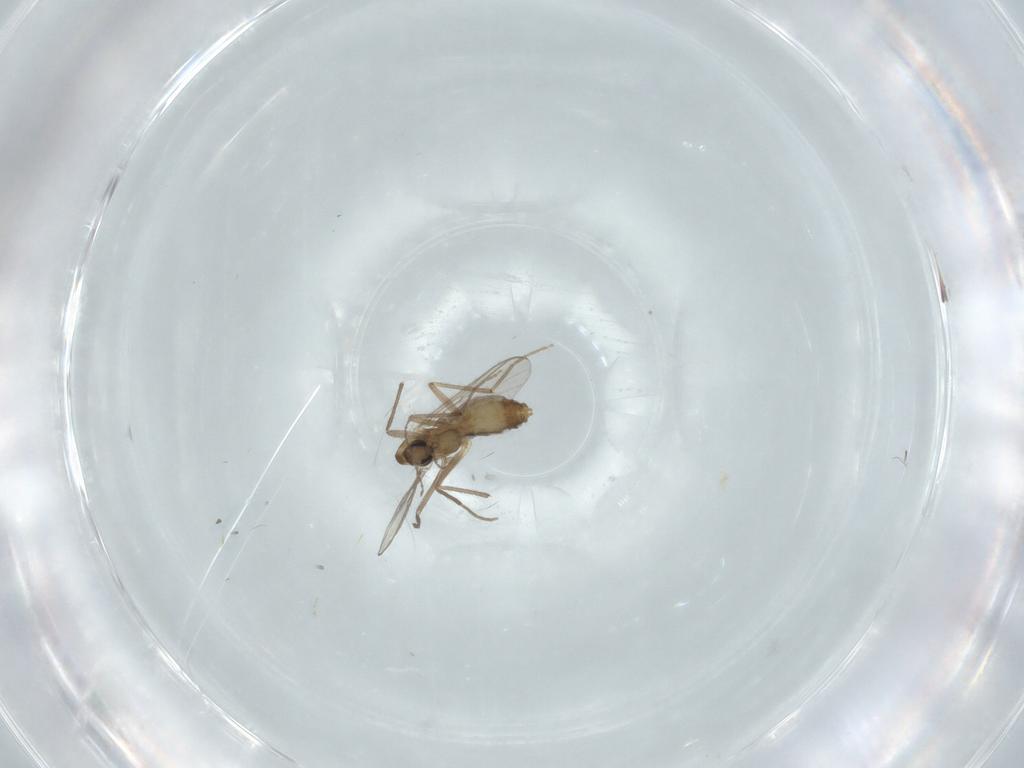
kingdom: Animalia
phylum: Arthropoda
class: Insecta
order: Diptera
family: Chironomidae
